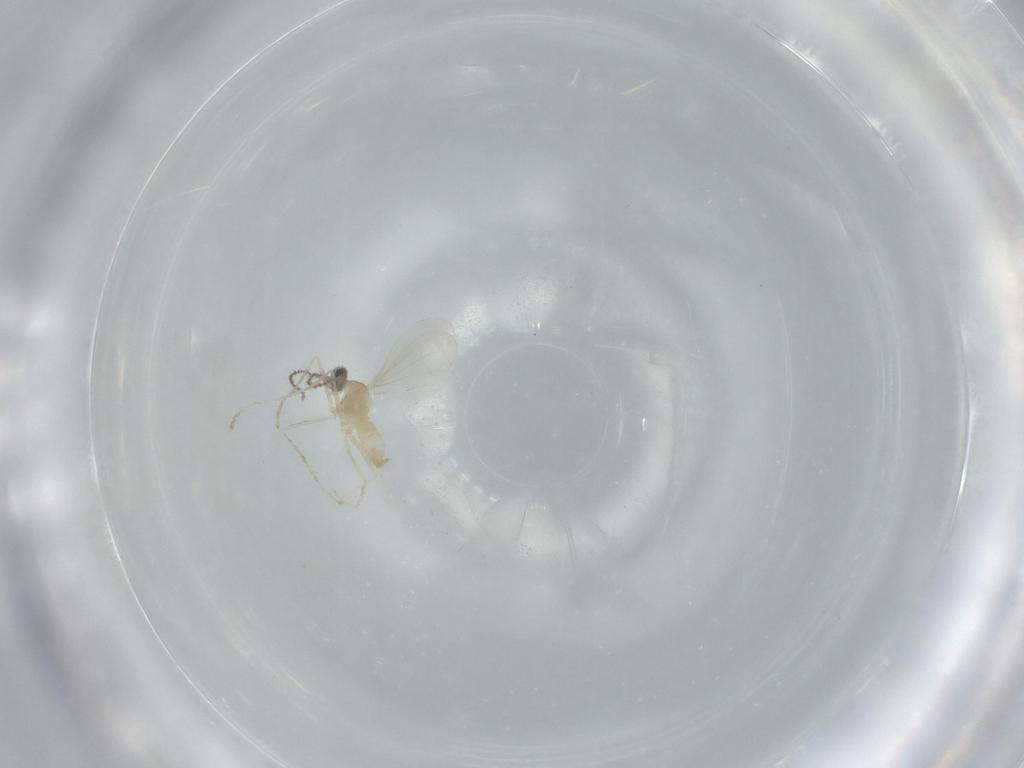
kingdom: Animalia
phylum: Arthropoda
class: Insecta
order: Diptera
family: Cecidomyiidae
